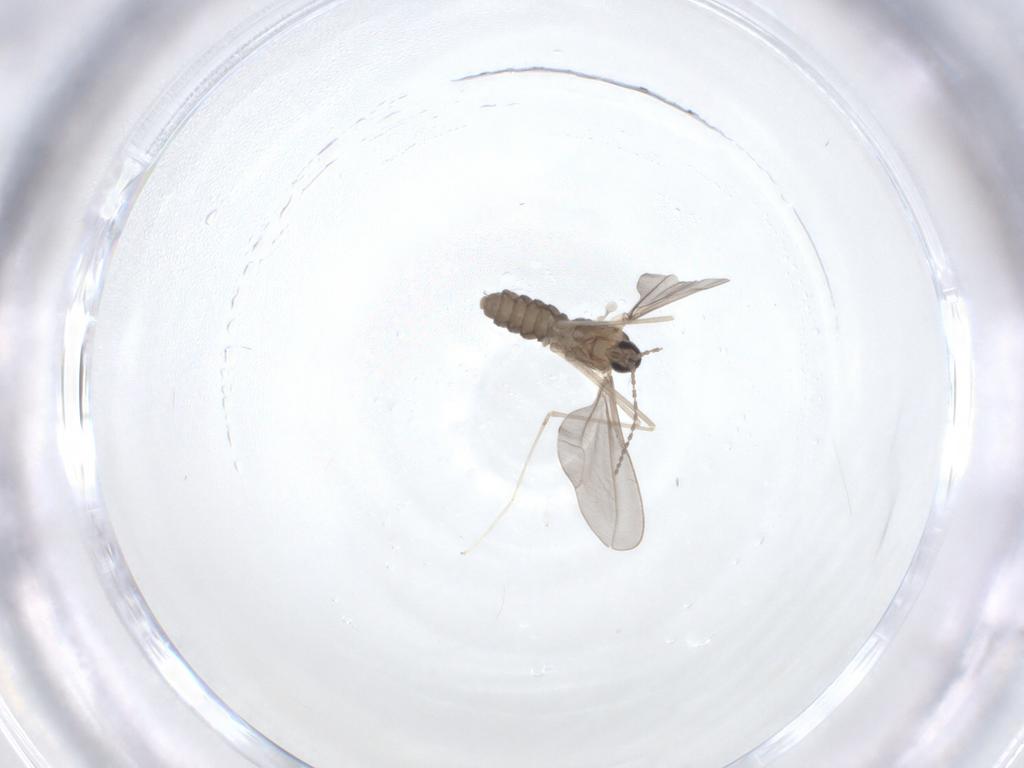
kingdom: Animalia
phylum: Arthropoda
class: Insecta
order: Diptera
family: Cecidomyiidae
